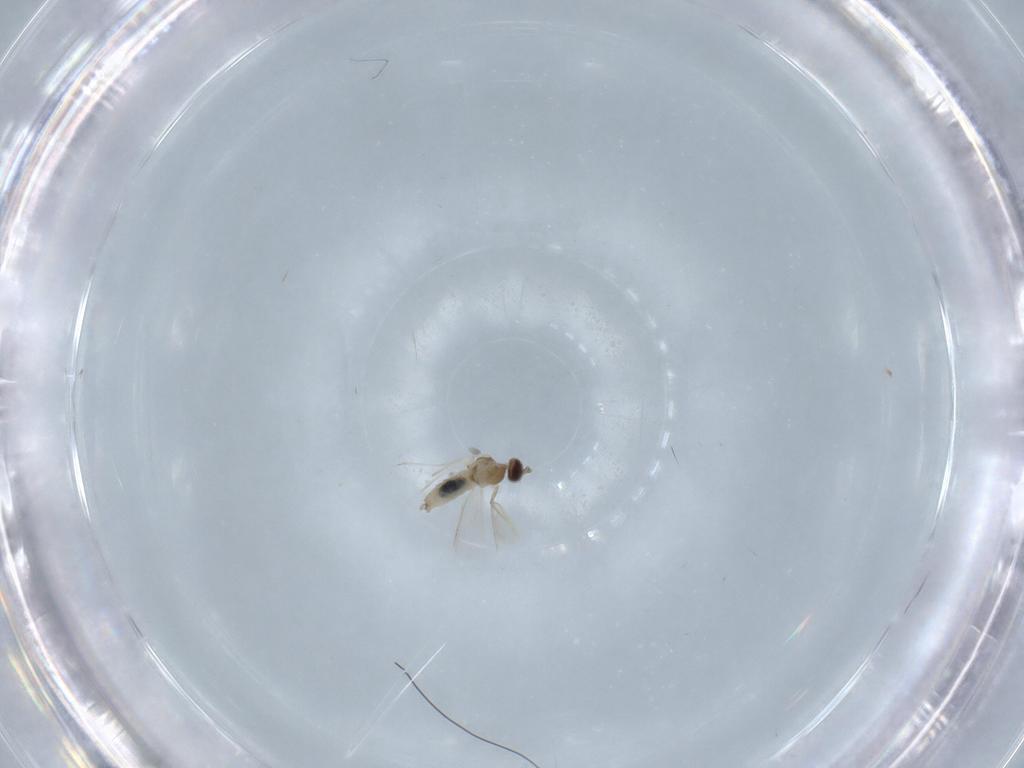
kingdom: Animalia
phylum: Arthropoda
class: Insecta
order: Diptera
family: Cecidomyiidae
